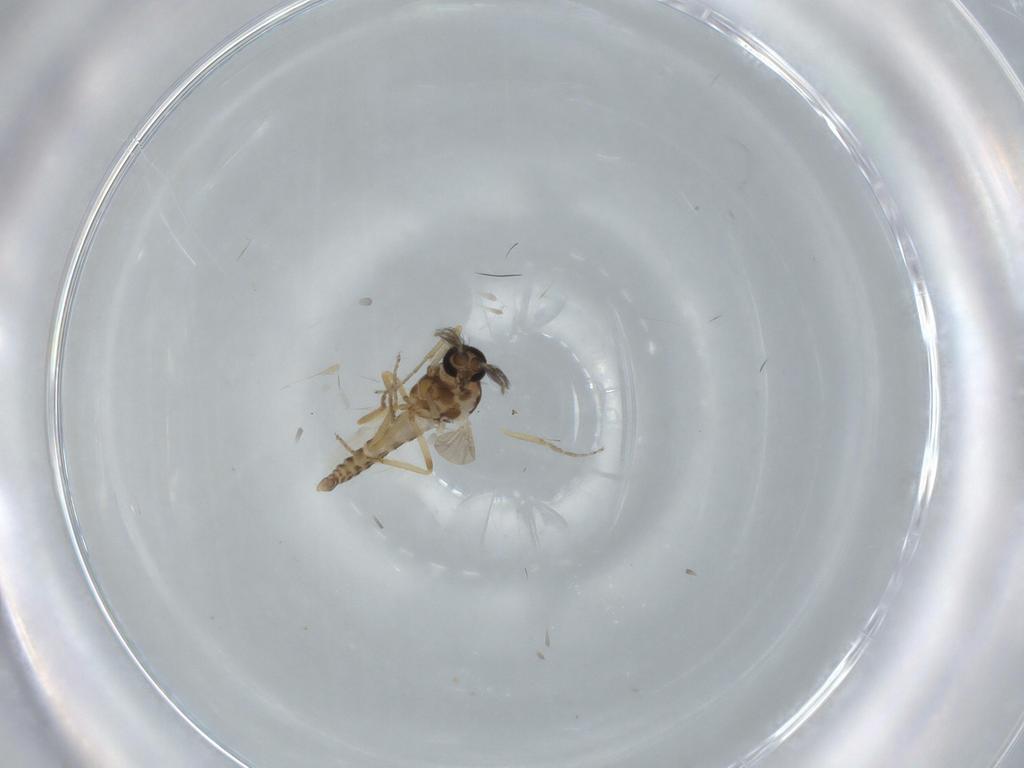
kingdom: Animalia
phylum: Arthropoda
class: Insecta
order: Diptera
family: Ceratopogonidae
